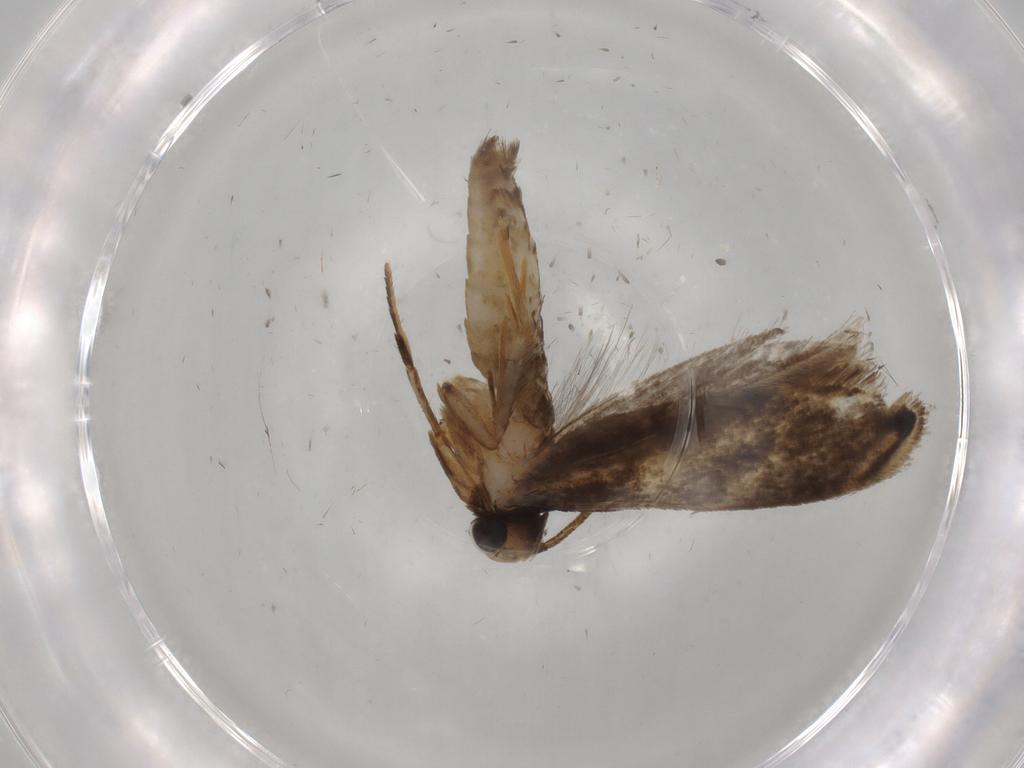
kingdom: Animalia
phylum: Arthropoda
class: Insecta
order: Lepidoptera
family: Tineidae
